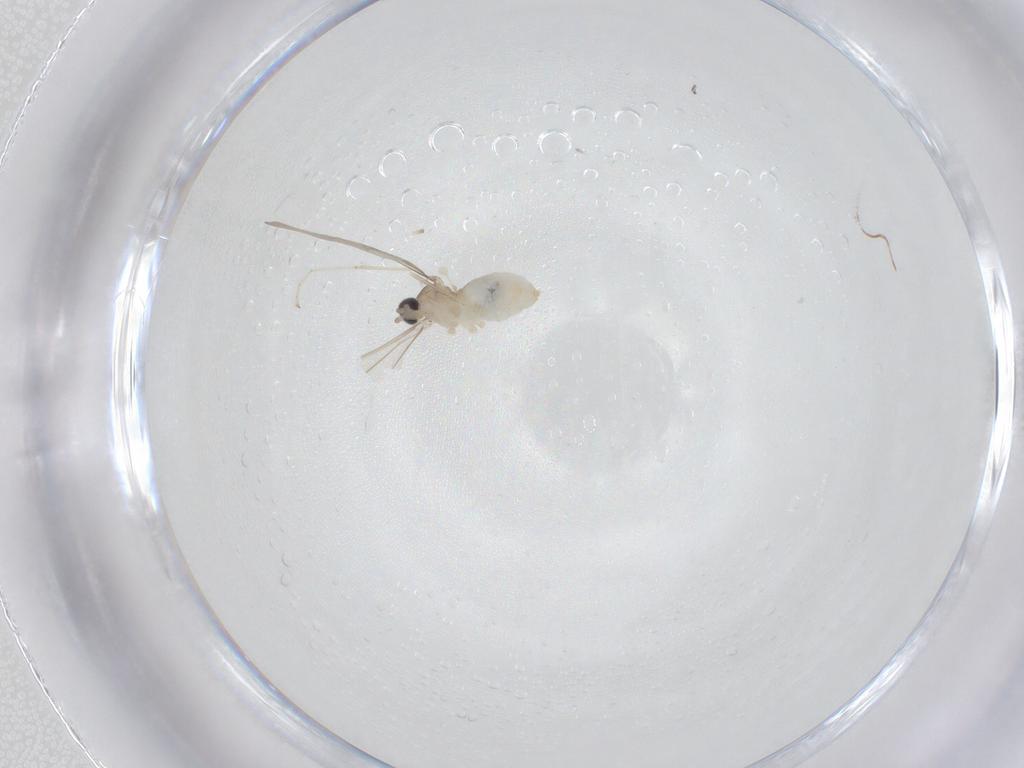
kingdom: Animalia
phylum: Arthropoda
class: Insecta
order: Diptera
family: Cecidomyiidae
